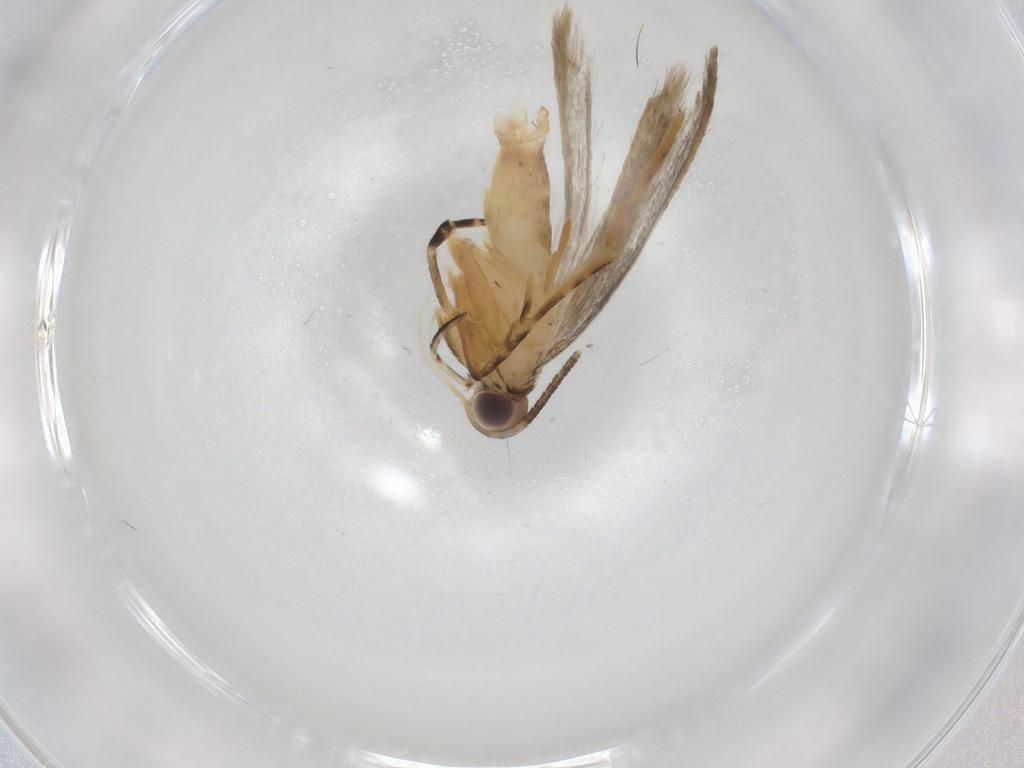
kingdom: Animalia
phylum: Arthropoda
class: Insecta
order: Lepidoptera
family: Autostichidae
